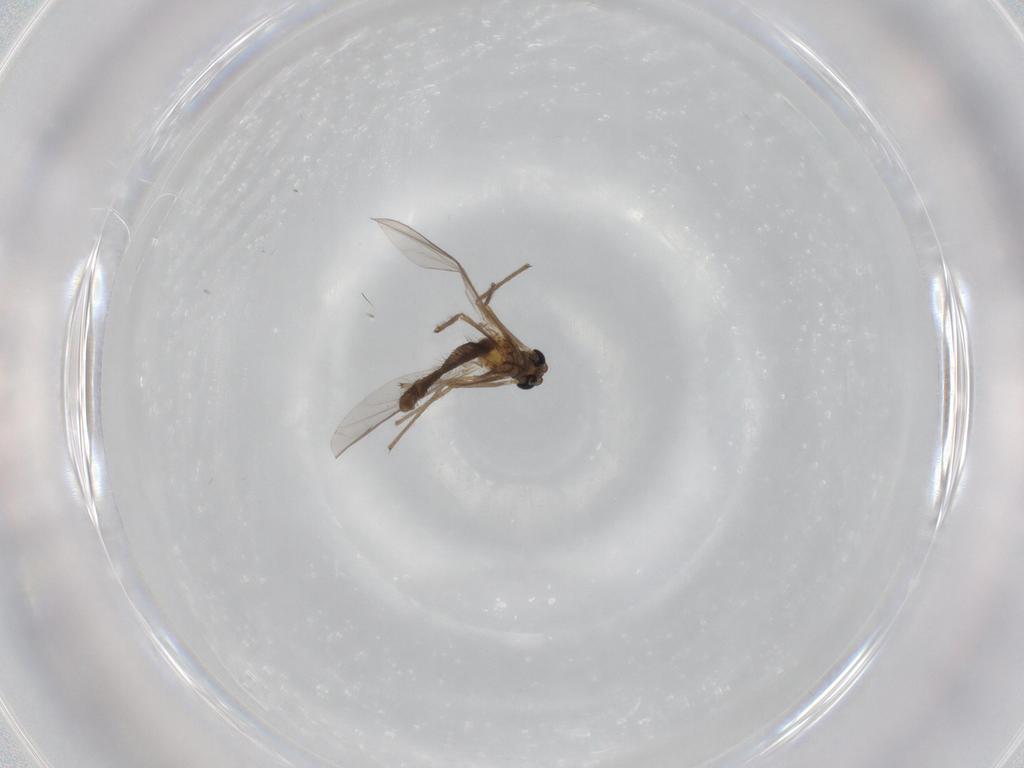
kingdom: Animalia
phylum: Arthropoda
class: Insecta
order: Diptera
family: Chironomidae
